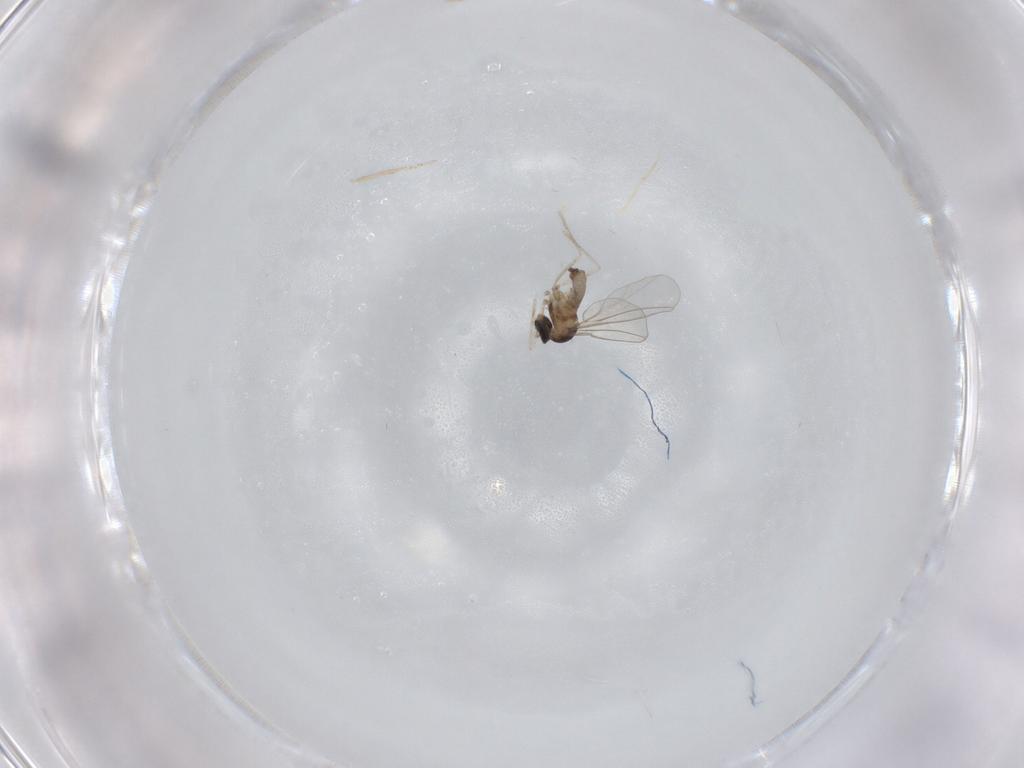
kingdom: Animalia
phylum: Arthropoda
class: Insecta
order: Diptera
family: Cecidomyiidae
